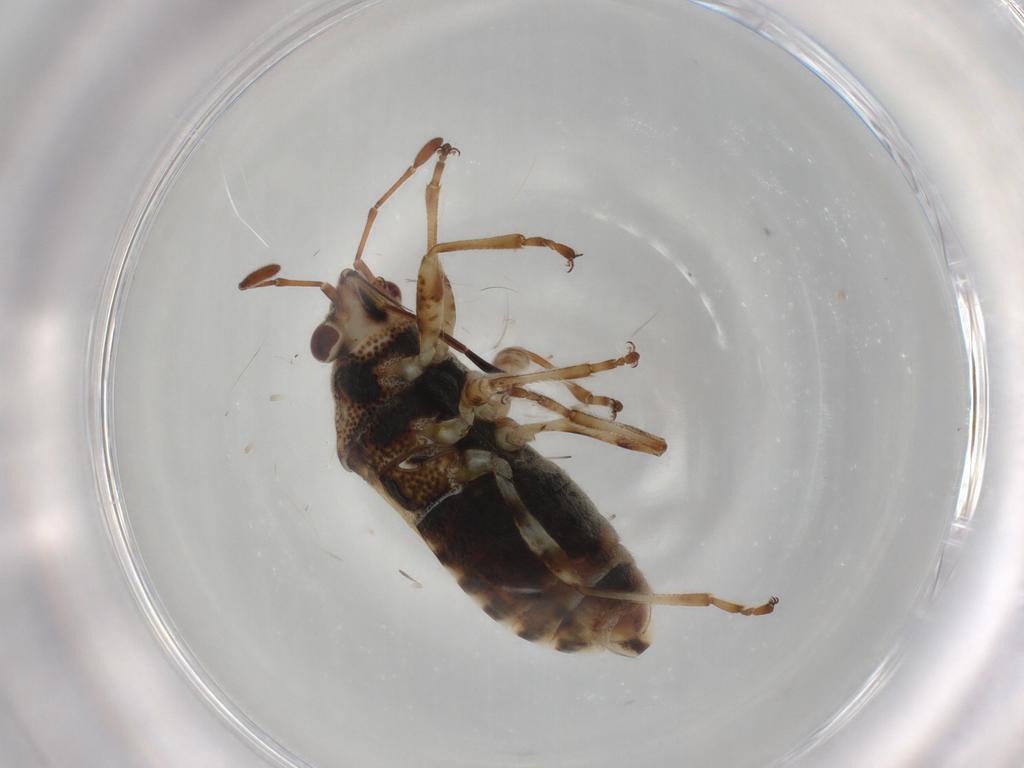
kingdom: Animalia
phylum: Arthropoda
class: Insecta
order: Hemiptera
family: Lygaeidae
